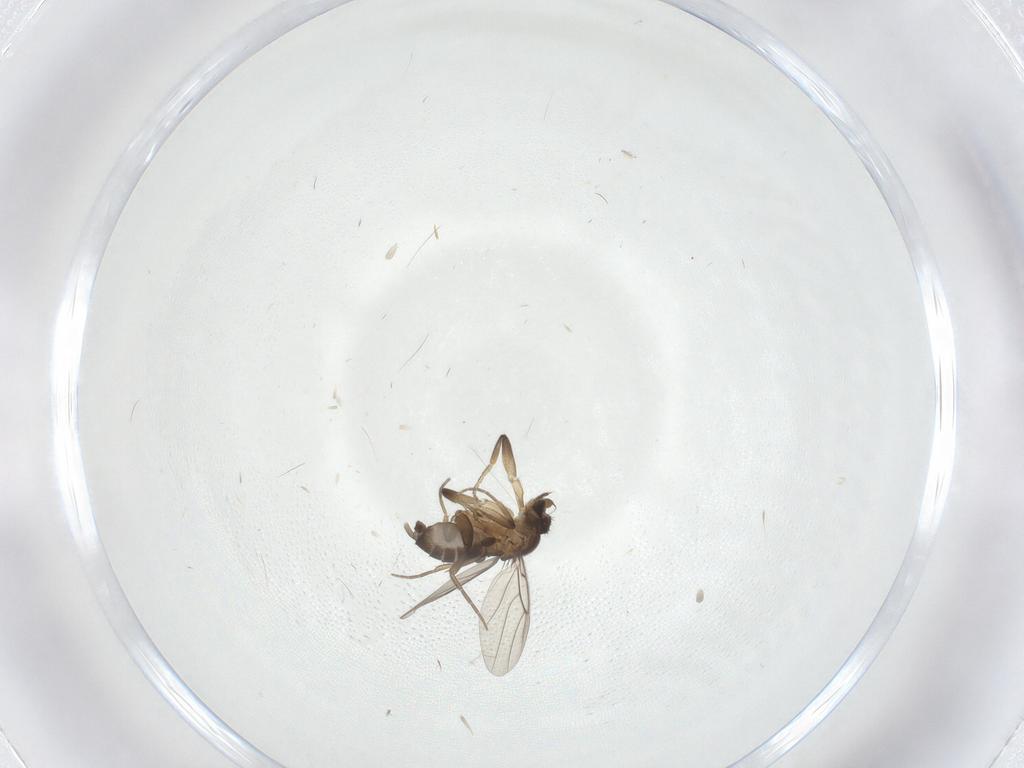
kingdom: Animalia
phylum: Arthropoda
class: Insecta
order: Diptera
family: Phoridae
